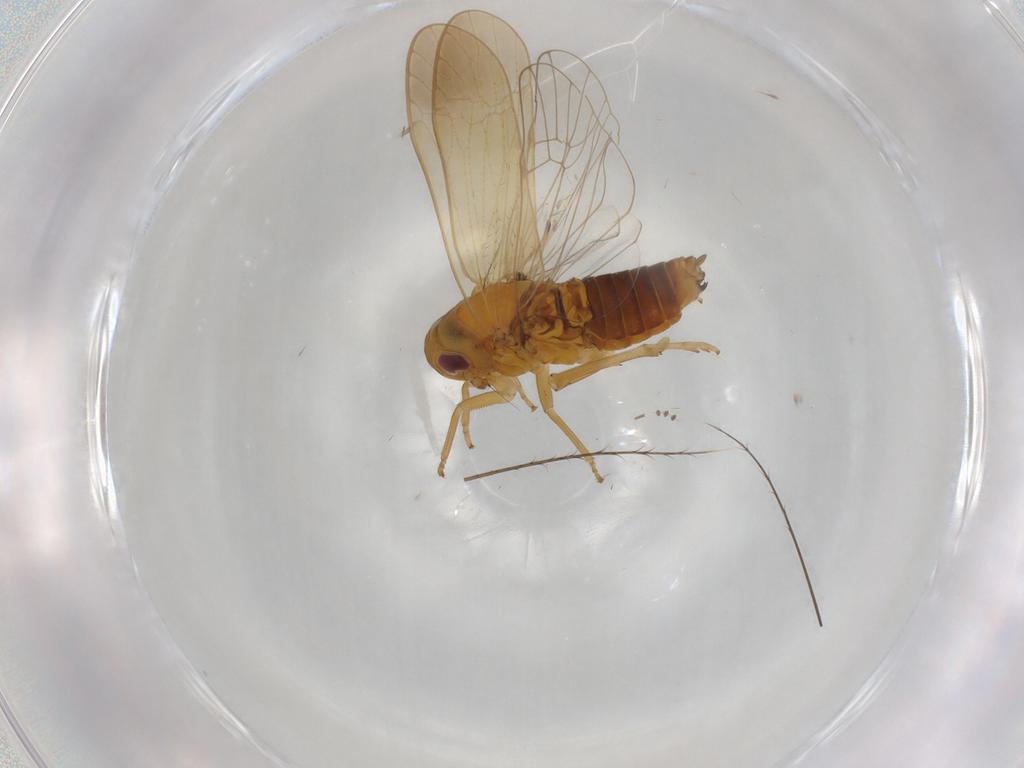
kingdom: Animalia
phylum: Arthropoda
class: Insecta
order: Hemiptera
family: Delphacidae
